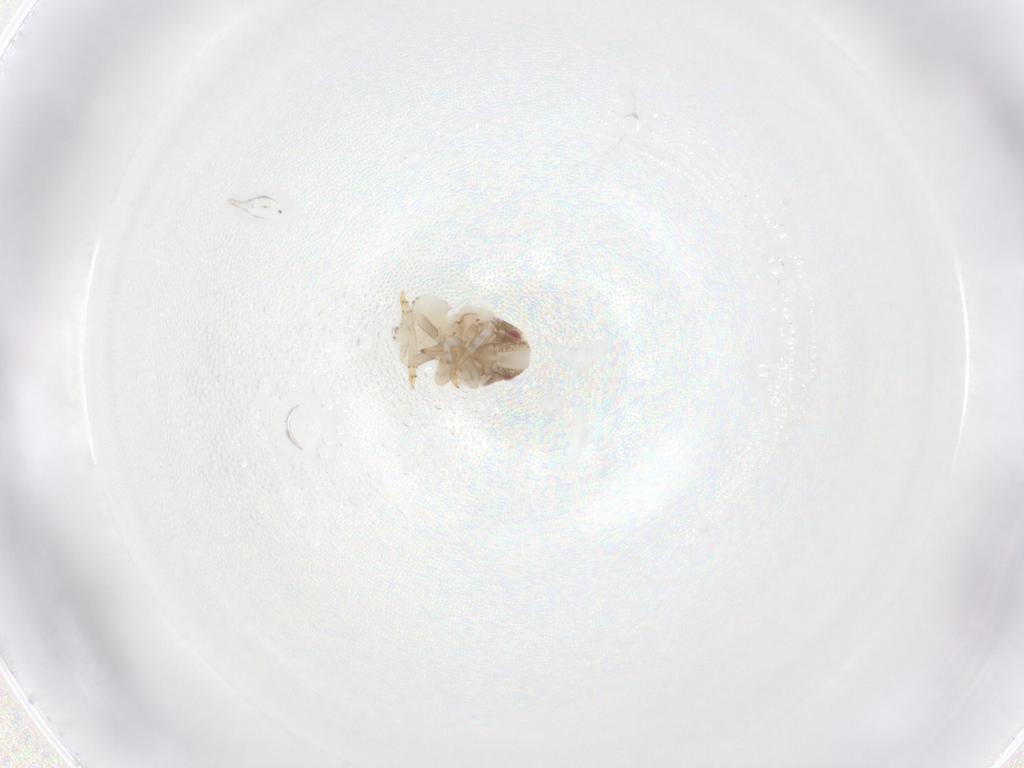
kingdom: Animalia
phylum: Arthropoda
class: Insecta
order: Hemiptera
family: Acanaloniidae
